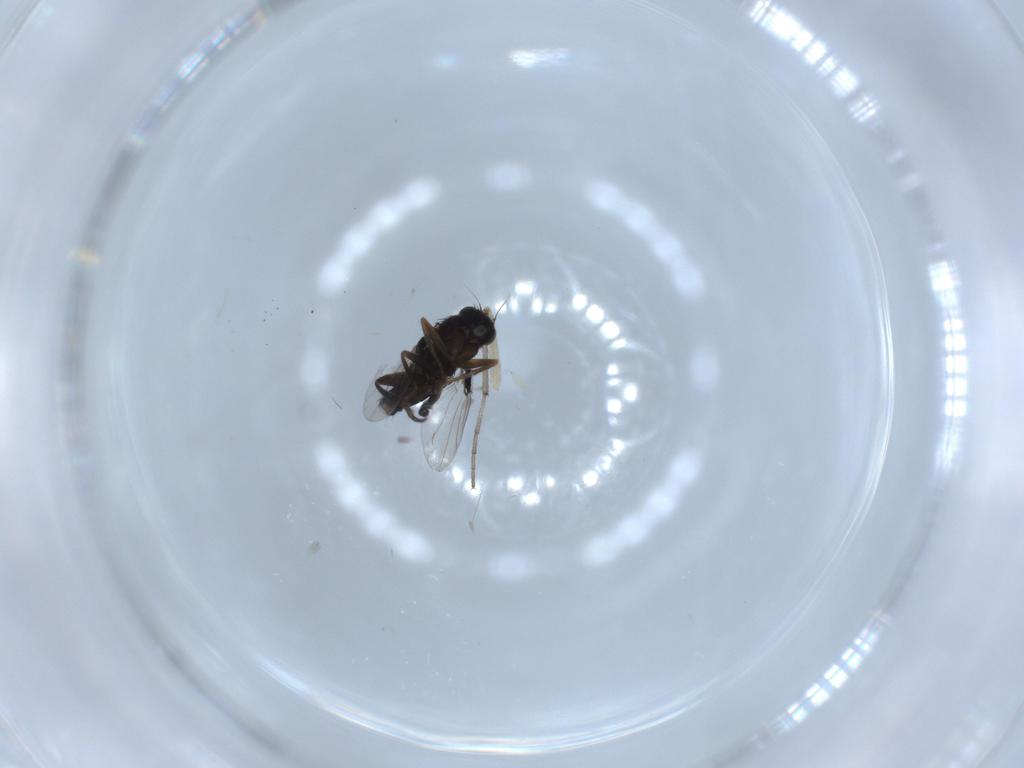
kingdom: Animalia
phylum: Arthropoda
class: Insecta
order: Diptera
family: Phoridae
